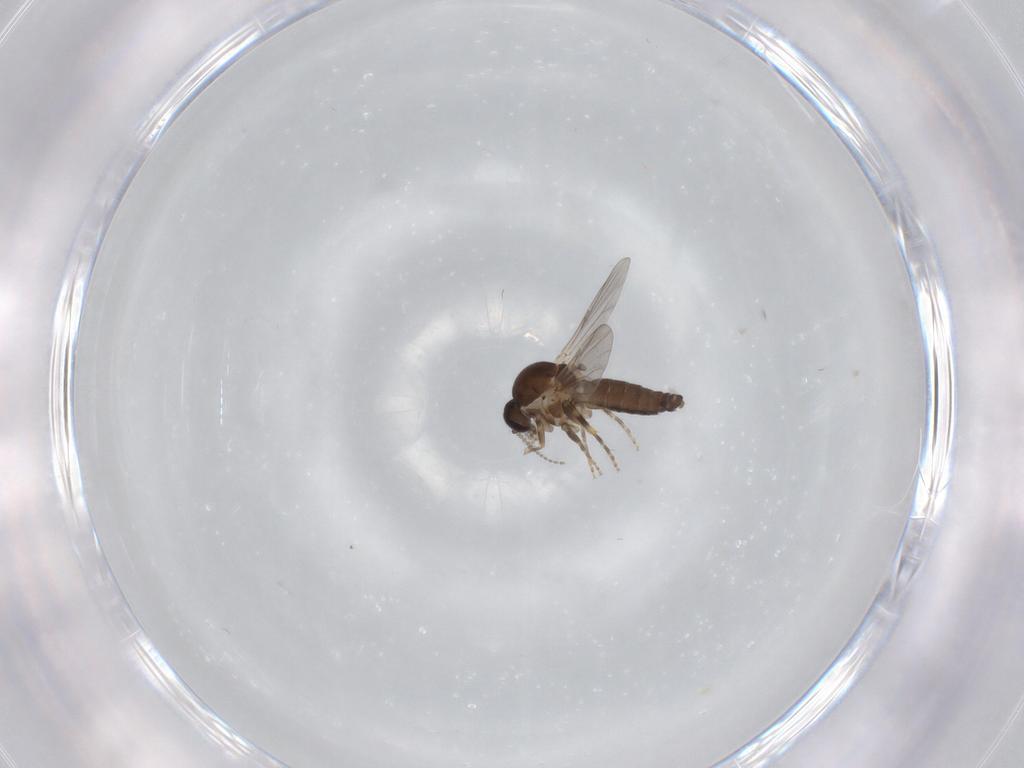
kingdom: Animalia
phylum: Arthropoda
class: Insecta
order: Diptera
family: Ceratopogonidae
